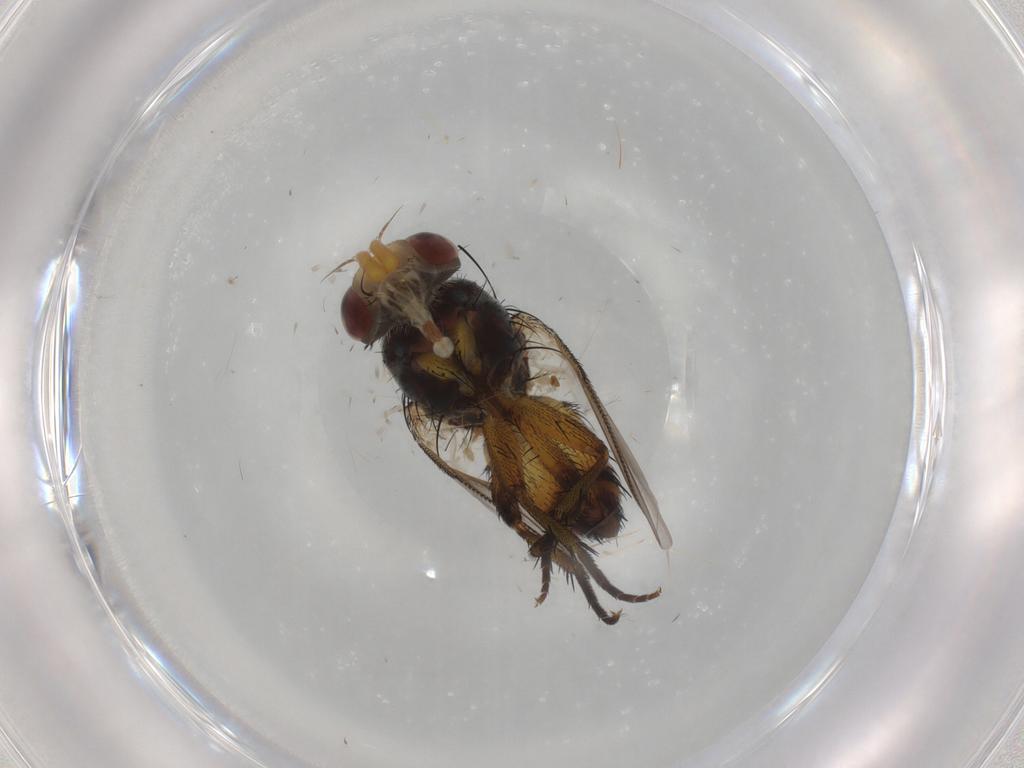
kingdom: Animalia
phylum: Arthropoda
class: Insecta
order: Diptera
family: Tachinidae
